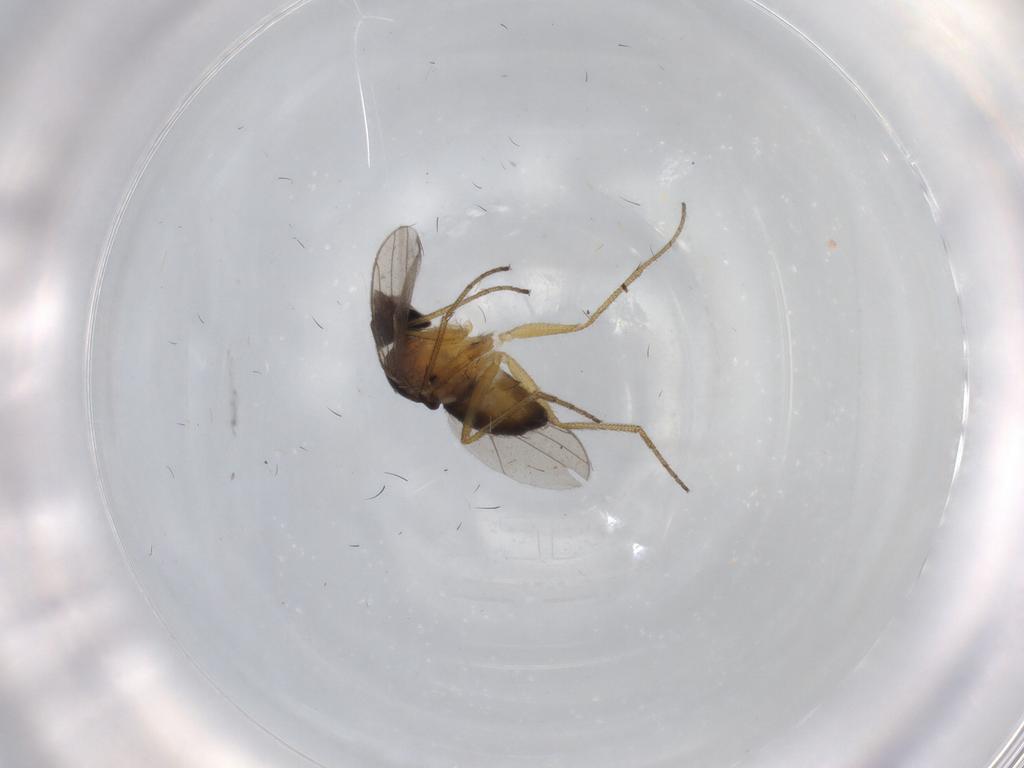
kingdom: Animalia
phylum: Arthropoda
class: Insecta
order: Diptera
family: Dolichopodidae
